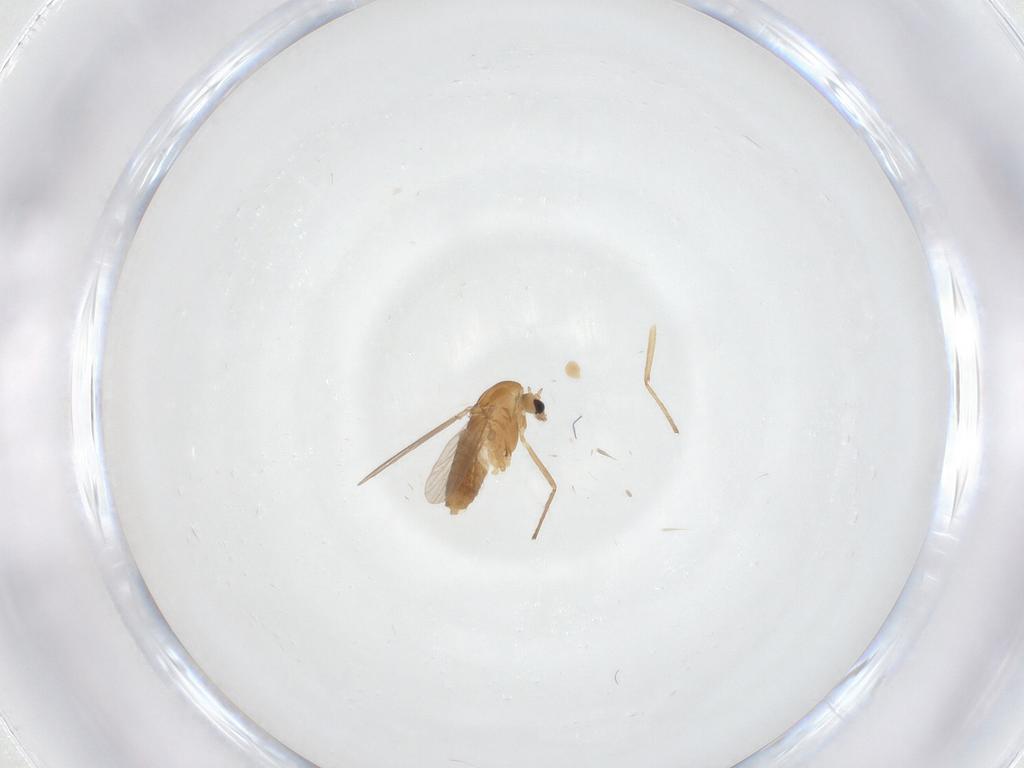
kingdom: Animalia
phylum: Arthropoda
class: Insecta
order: Diptera
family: Chironomidae
